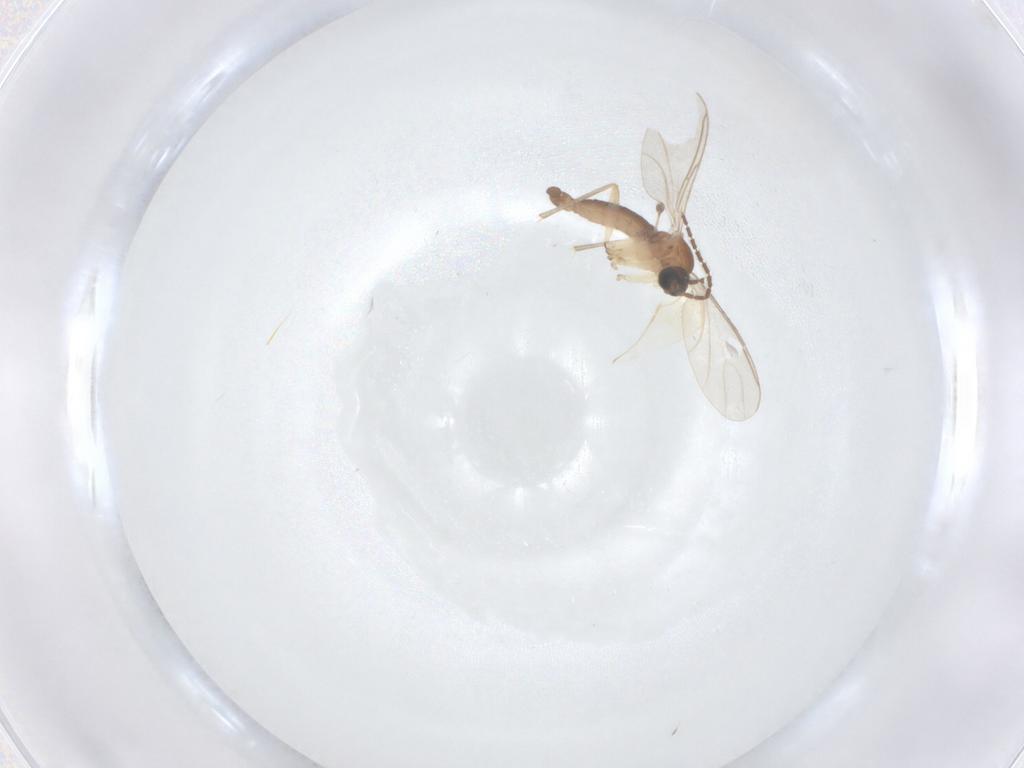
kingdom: Animalia
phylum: Arthropoda
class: Insecta
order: Diptera
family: Sciaridae
